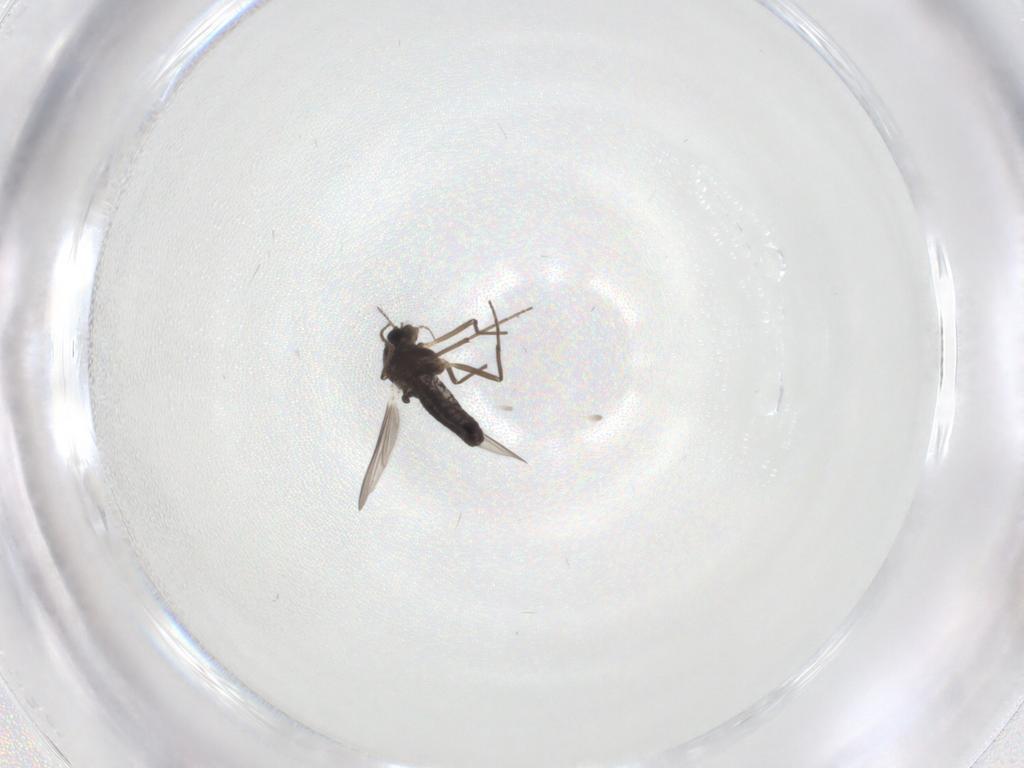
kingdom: Animalia
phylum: Arthropoda
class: Insecta
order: Diptera
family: Chironomidae
